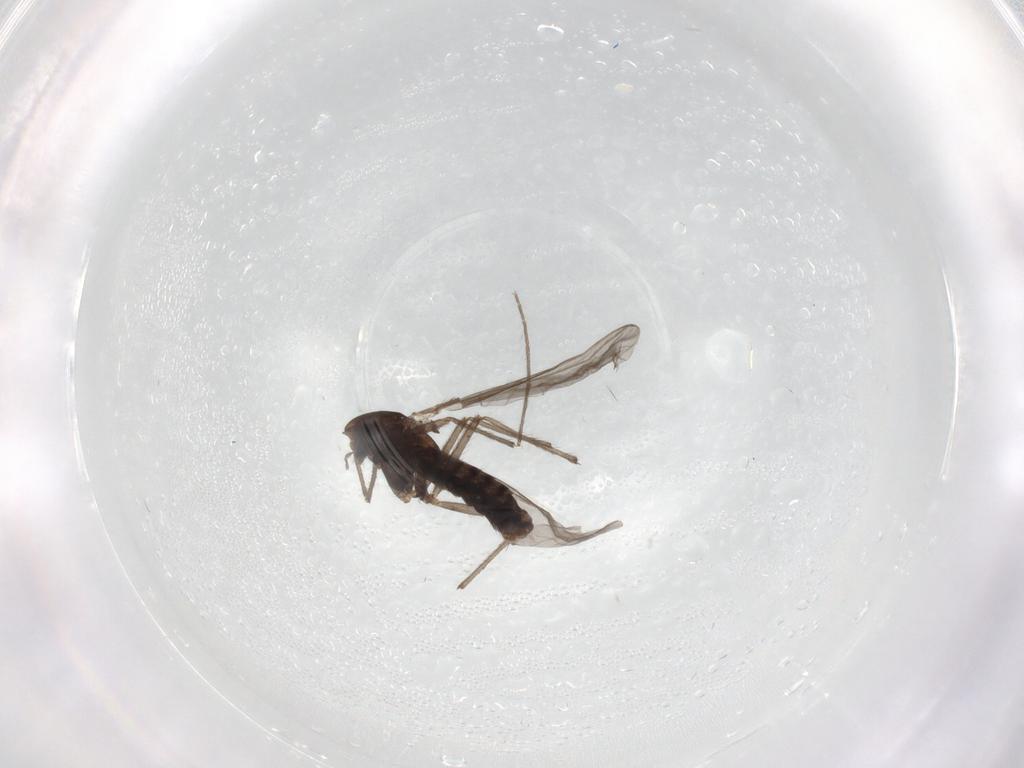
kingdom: Animalia
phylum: Arthropoda
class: Insecta
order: Diptera
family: Chironomidae
